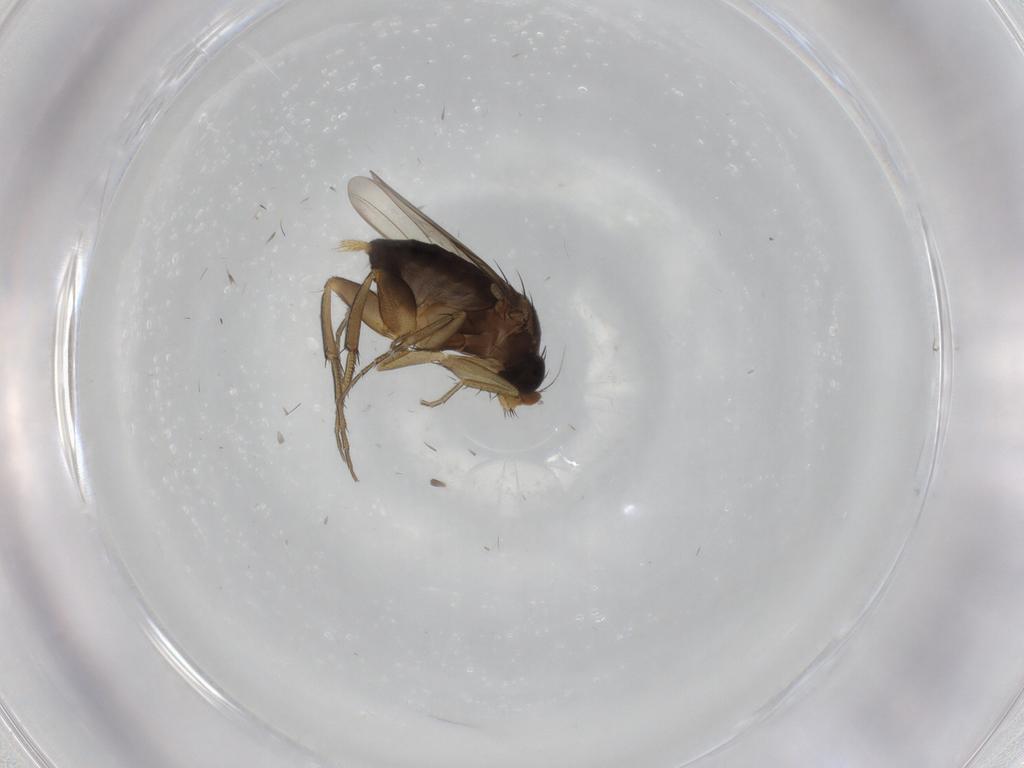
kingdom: Animalia
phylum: Arthropoda
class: Insecta
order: Diptera
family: Phoridae
